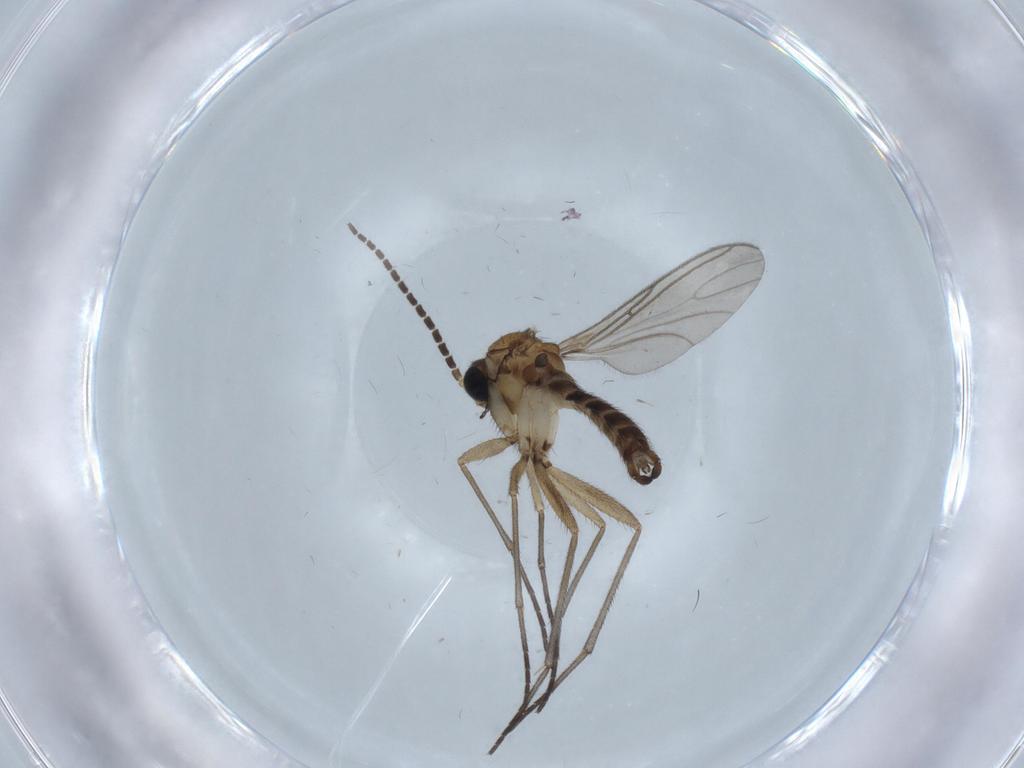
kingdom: Animalia
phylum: Arthropoda
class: Insecta
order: Diptera
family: Sciaridae
